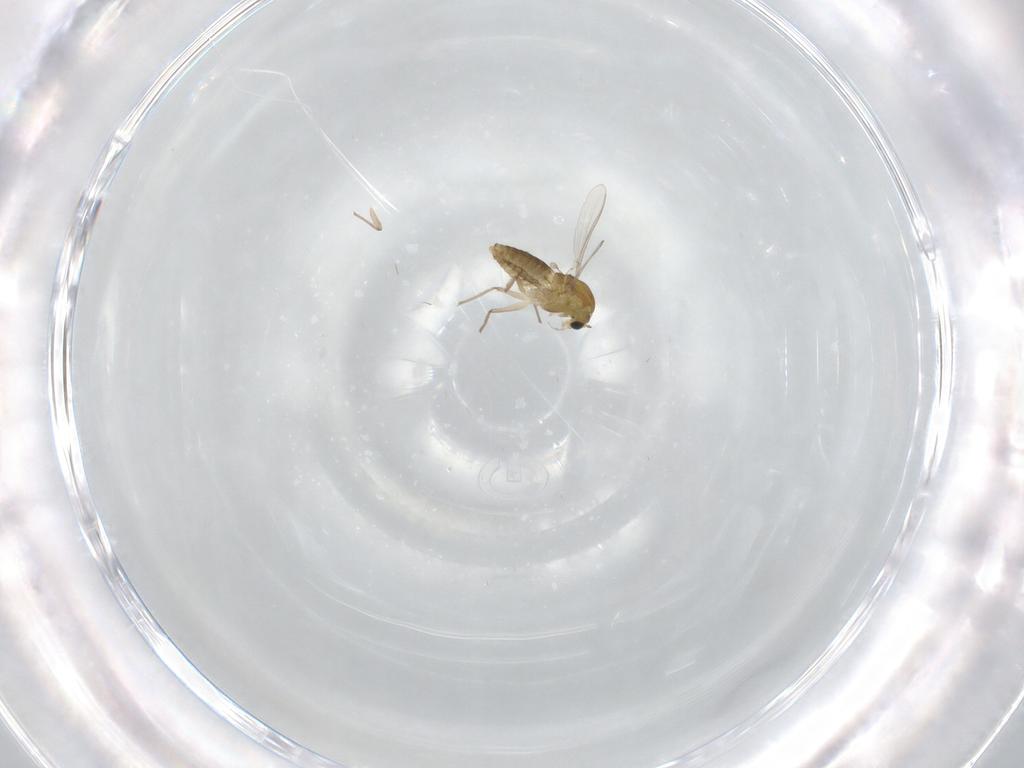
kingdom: Animalia
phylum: Arthropoda
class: Insecta
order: Diptera
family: Chironomidae
